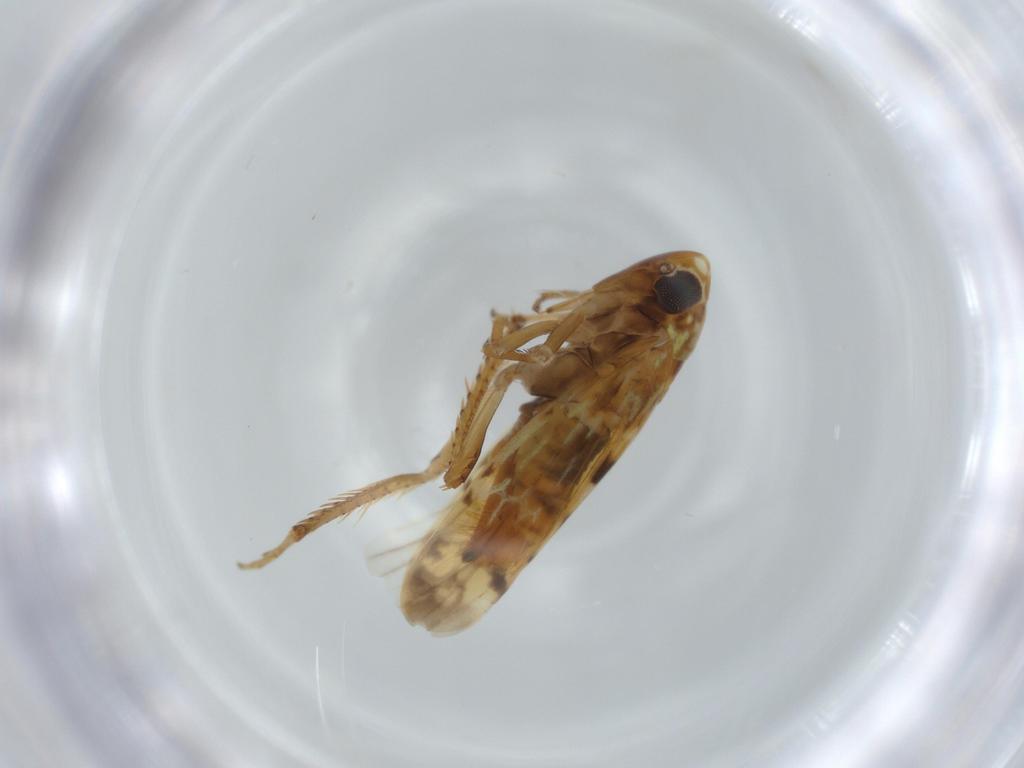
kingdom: Animalia
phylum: Arthropoda
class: Insecta
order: Hemiptera
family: Cicadellidae
